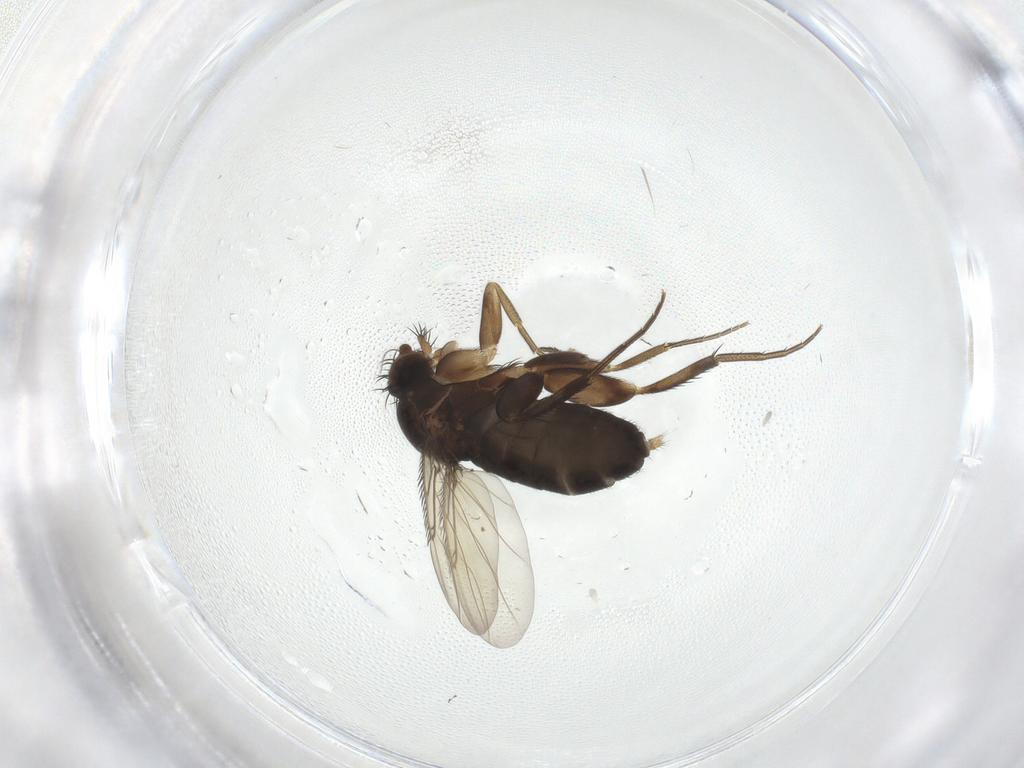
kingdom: Animalia
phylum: Arthropoda
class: Insecta
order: Diptera
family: Phoridae
